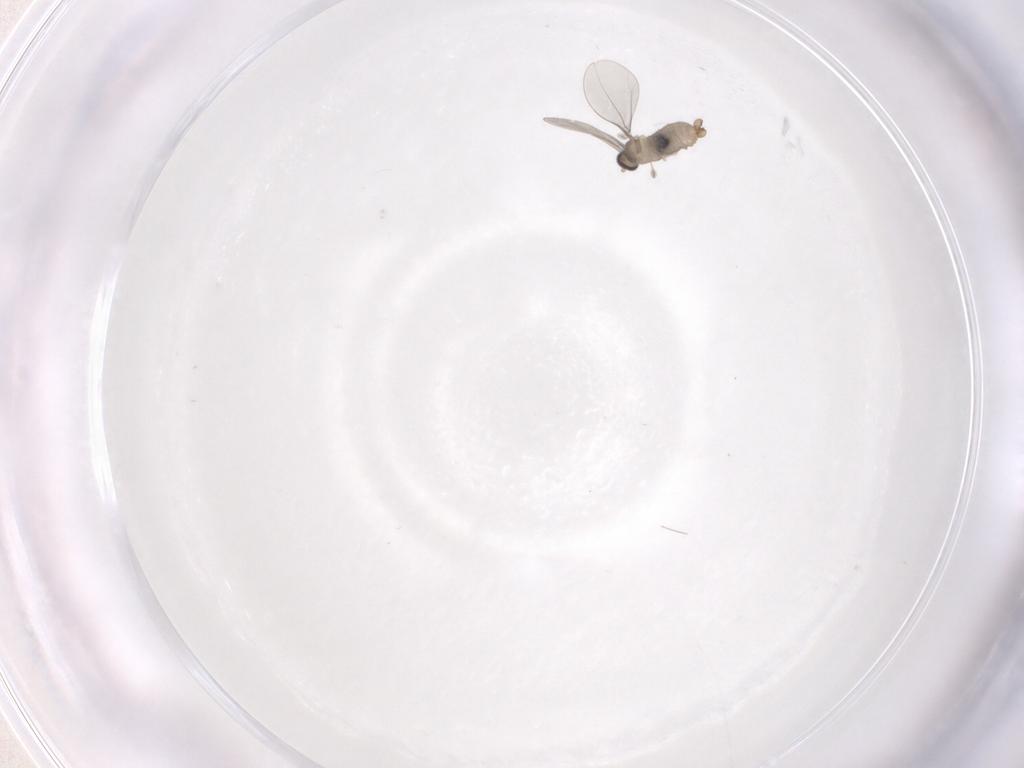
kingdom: Animalia
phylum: Arthropoda
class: Insecta
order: Diptera
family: Cecidomyiidae
